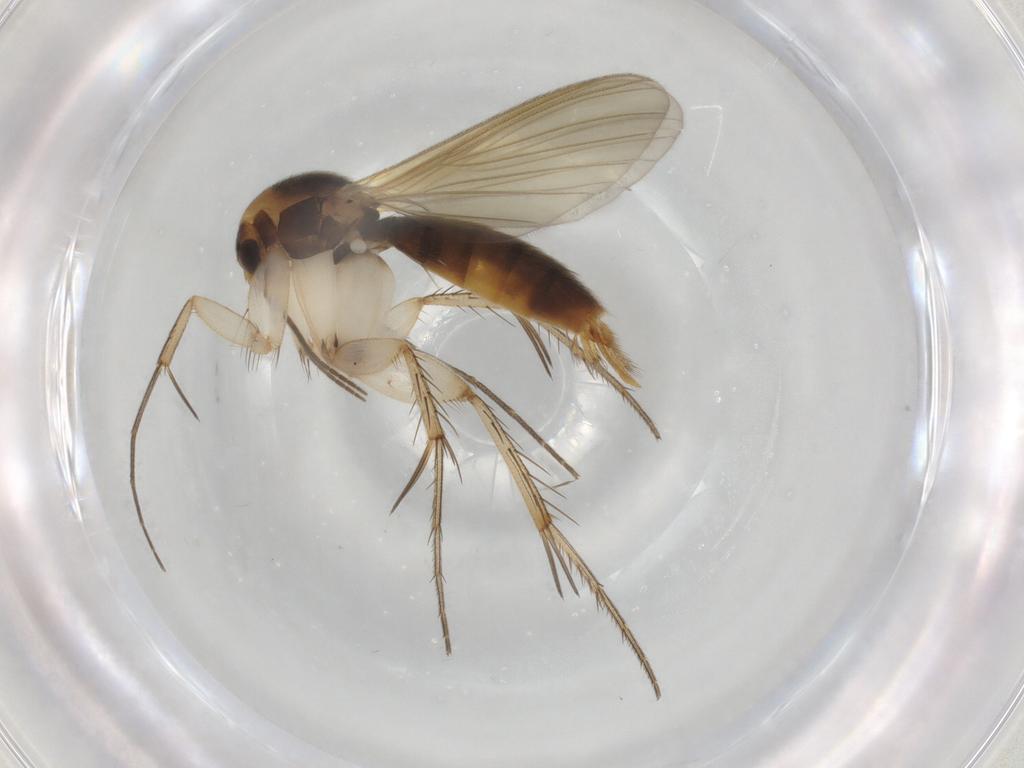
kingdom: Animalia
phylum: Arthropoda
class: Insecta
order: Diptera
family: Mycetophilidae
